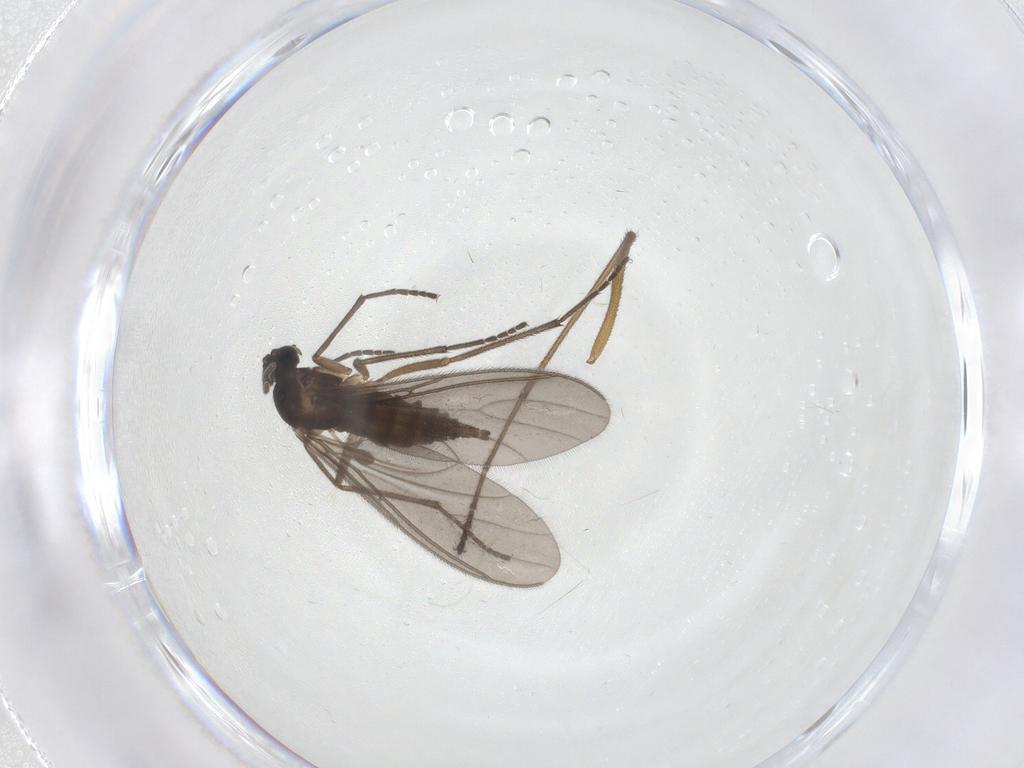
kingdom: Animalia
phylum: Arthropoda
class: Insecta
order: Diptera
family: Limoniidae
